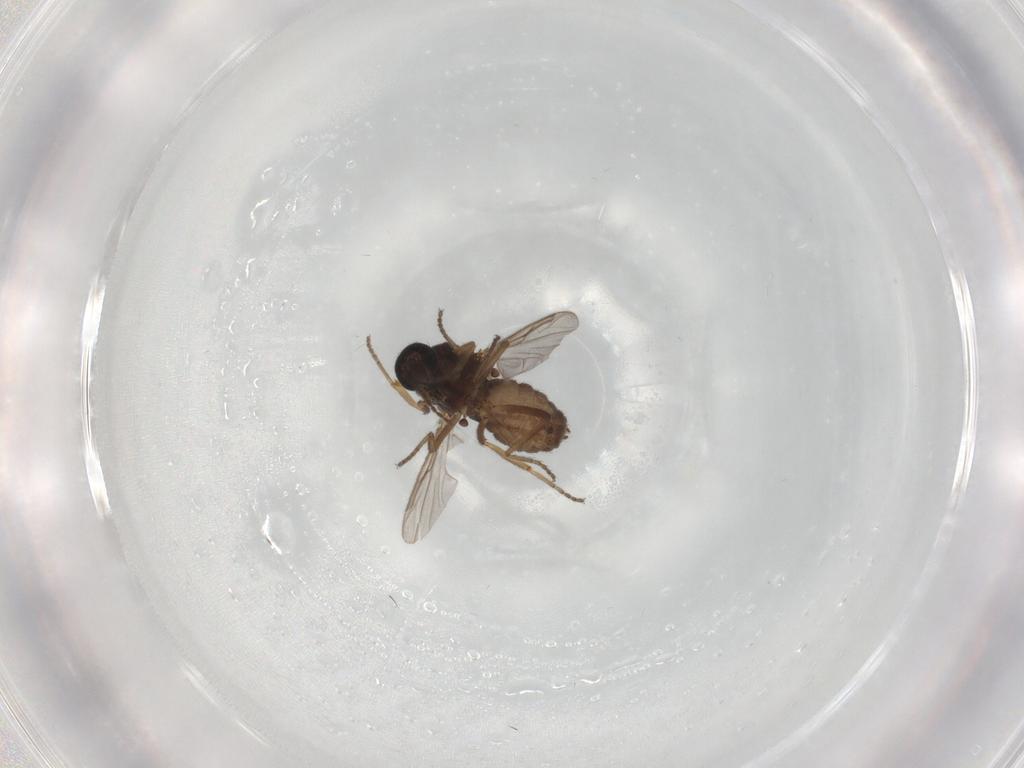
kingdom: Animalia
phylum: Arthropoda
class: Insecta
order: Diptera
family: Ceratopogonidae
